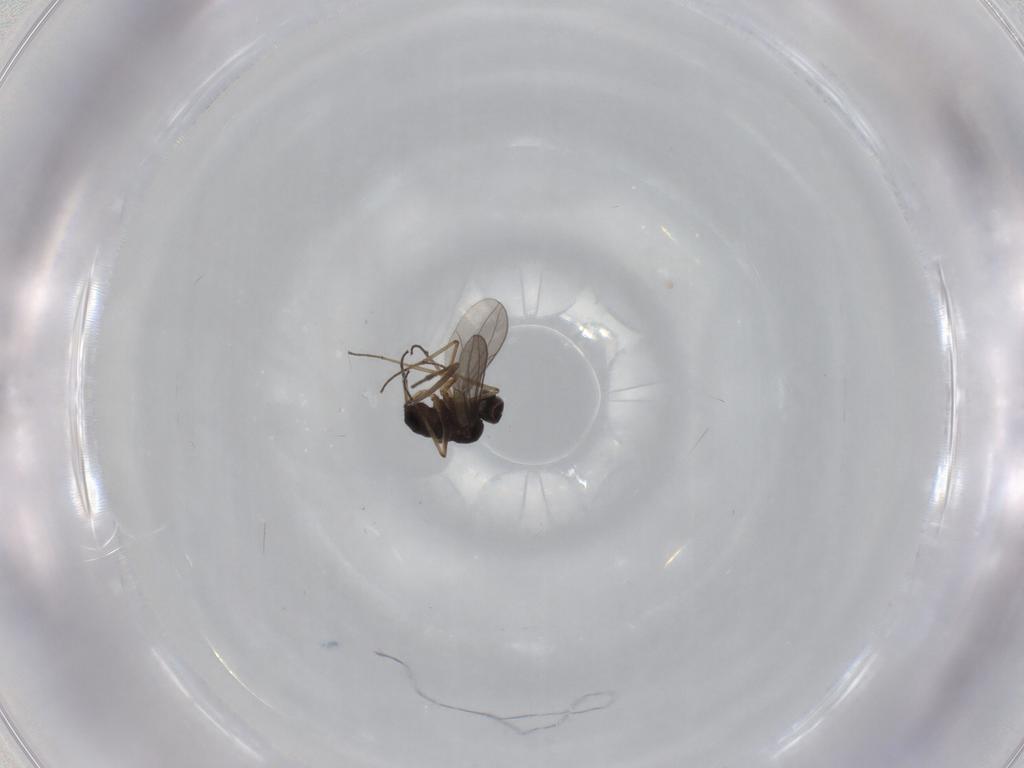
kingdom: Animalia
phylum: Arthropoda
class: Insecta
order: Diptera
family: Dolichopodidae
